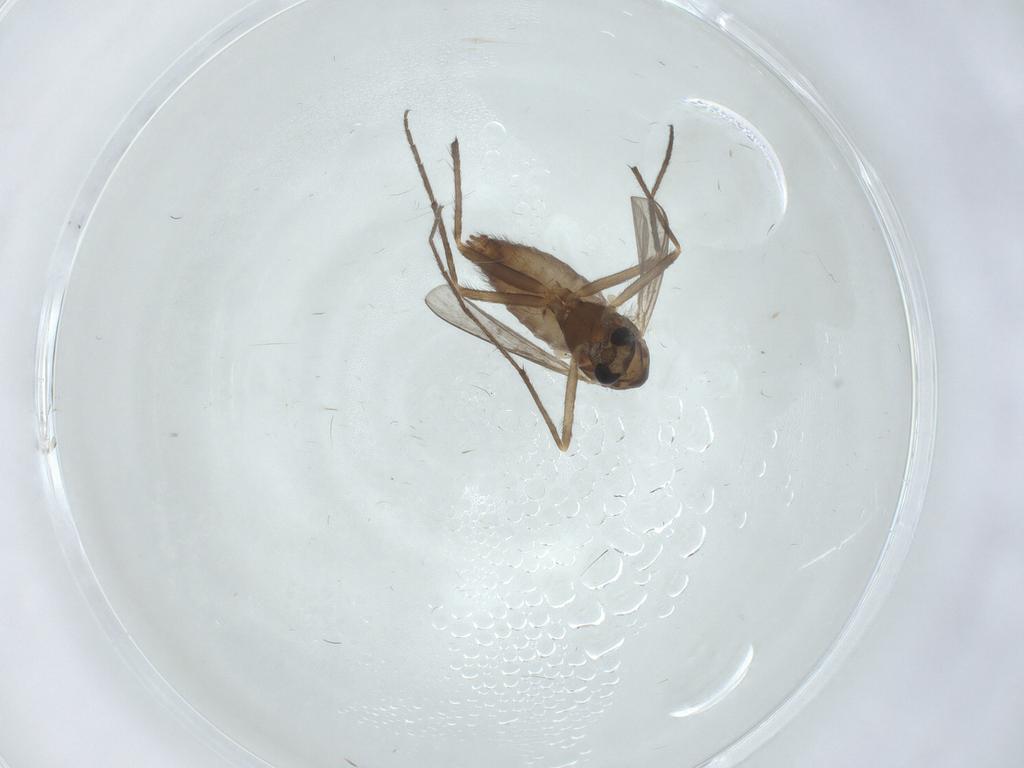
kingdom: Animalia
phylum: Arthropoda
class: Insecta
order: Diptera
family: Chironomidae
